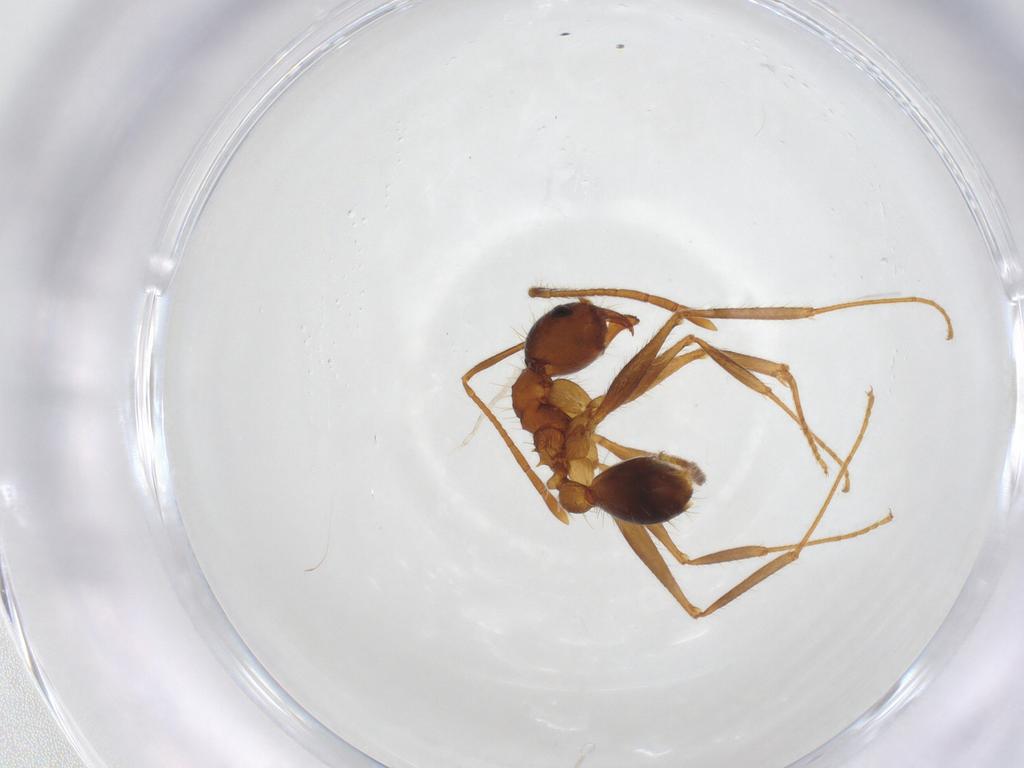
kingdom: Animalia
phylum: Arthropoda
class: Insecta
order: Hymenoptera
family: Formicidae
